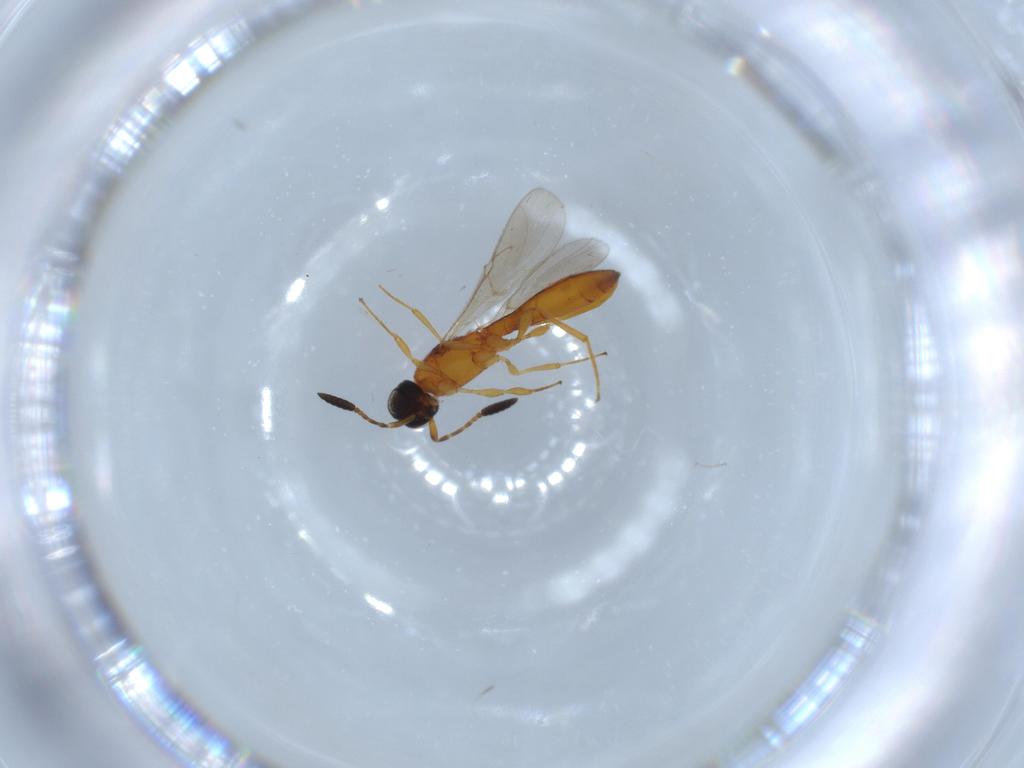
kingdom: Animalia
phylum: Arthropoda
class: Insecta
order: Hymenoptera
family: Scelionidae
